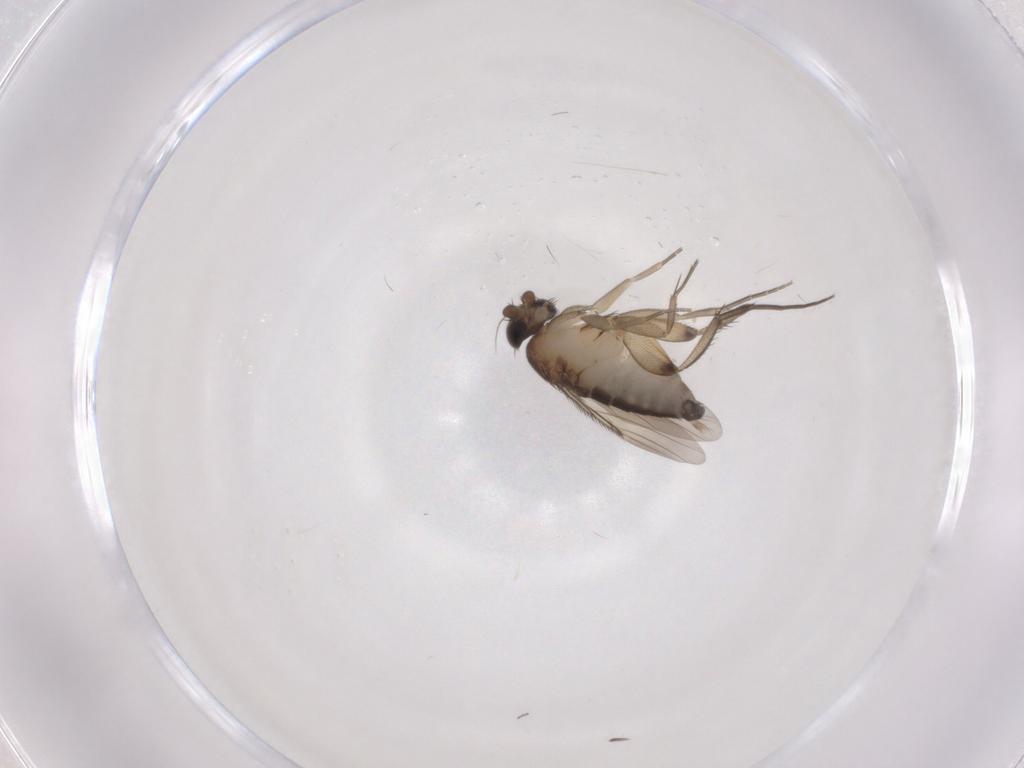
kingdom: Animalia
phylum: Arthropoda
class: Insecta
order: Diptera
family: Phoridae
